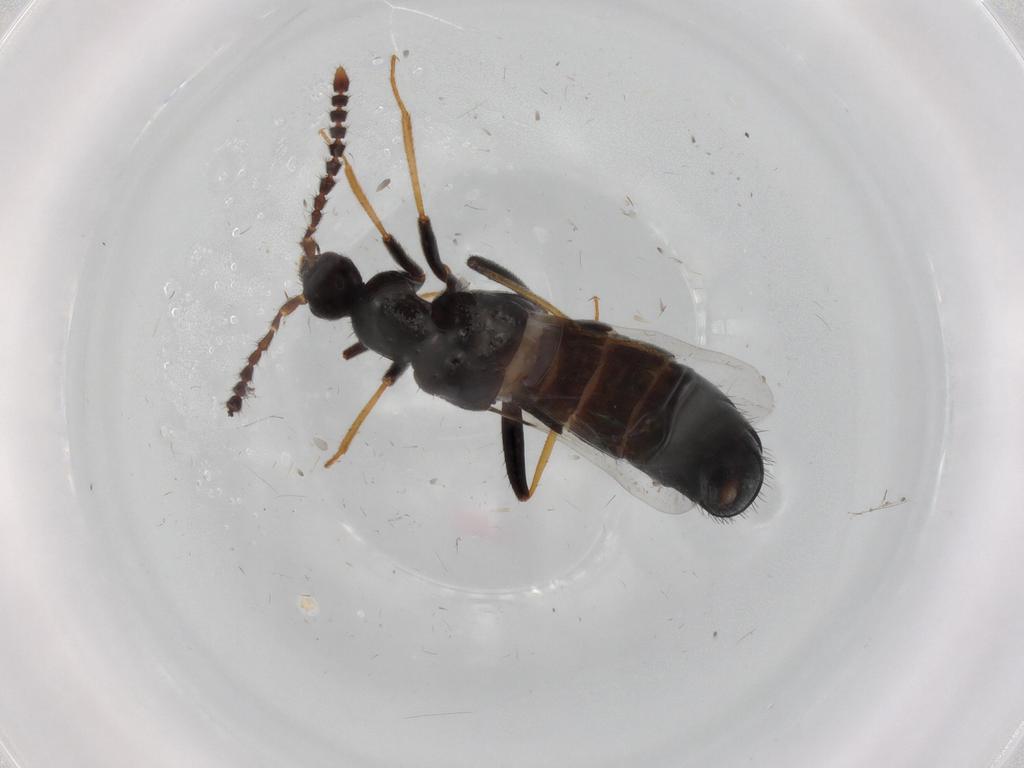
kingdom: Animalia
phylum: Arthropoda
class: Insecta
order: Coleoptera
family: Staphylinidae
